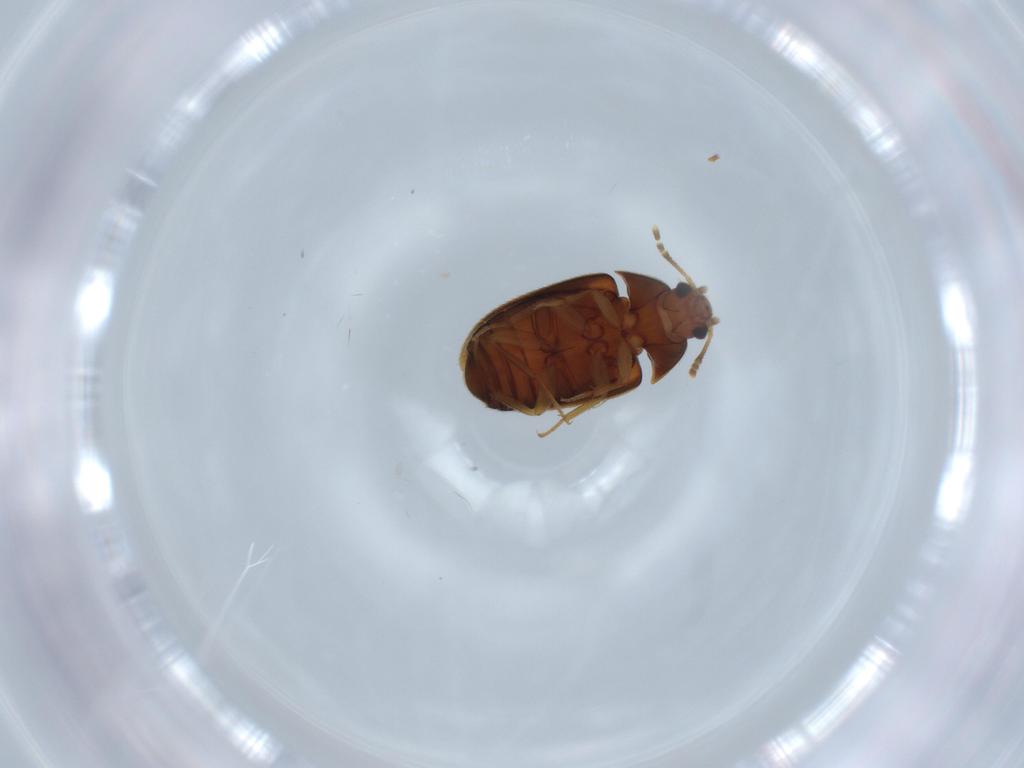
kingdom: Animalia
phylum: Arthropoda
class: Insecta
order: Coleoptera
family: Mycetophagidae
